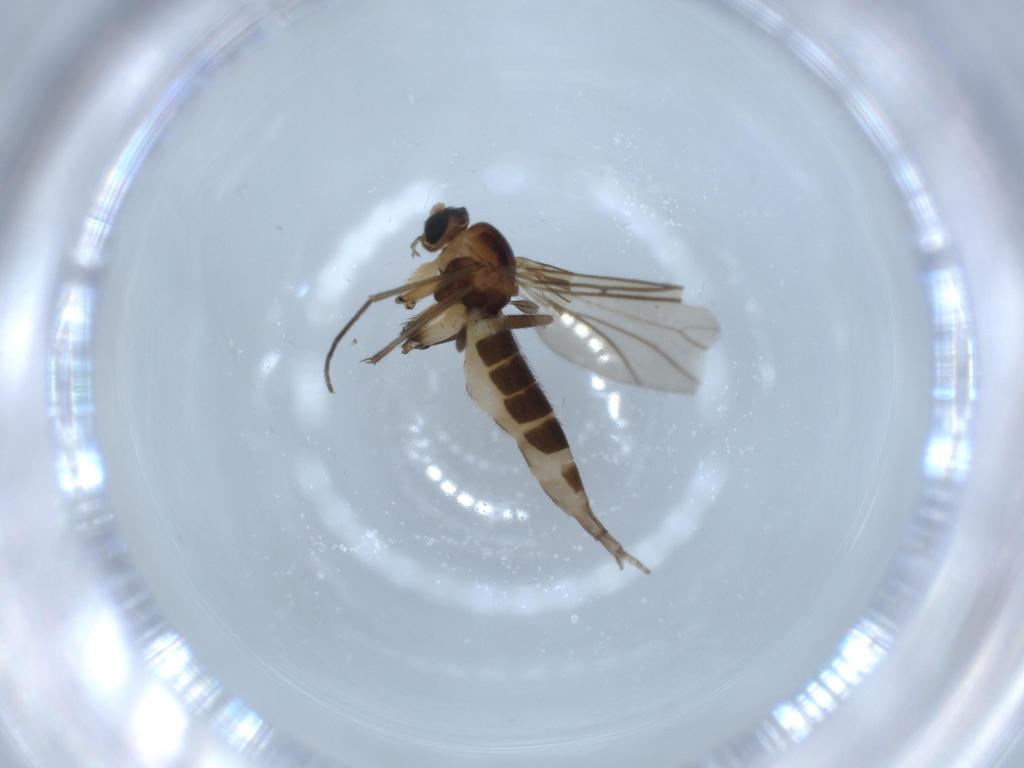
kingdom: Animalia
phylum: Arthropoda
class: Insecta
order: Diptera
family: Sciaridae
